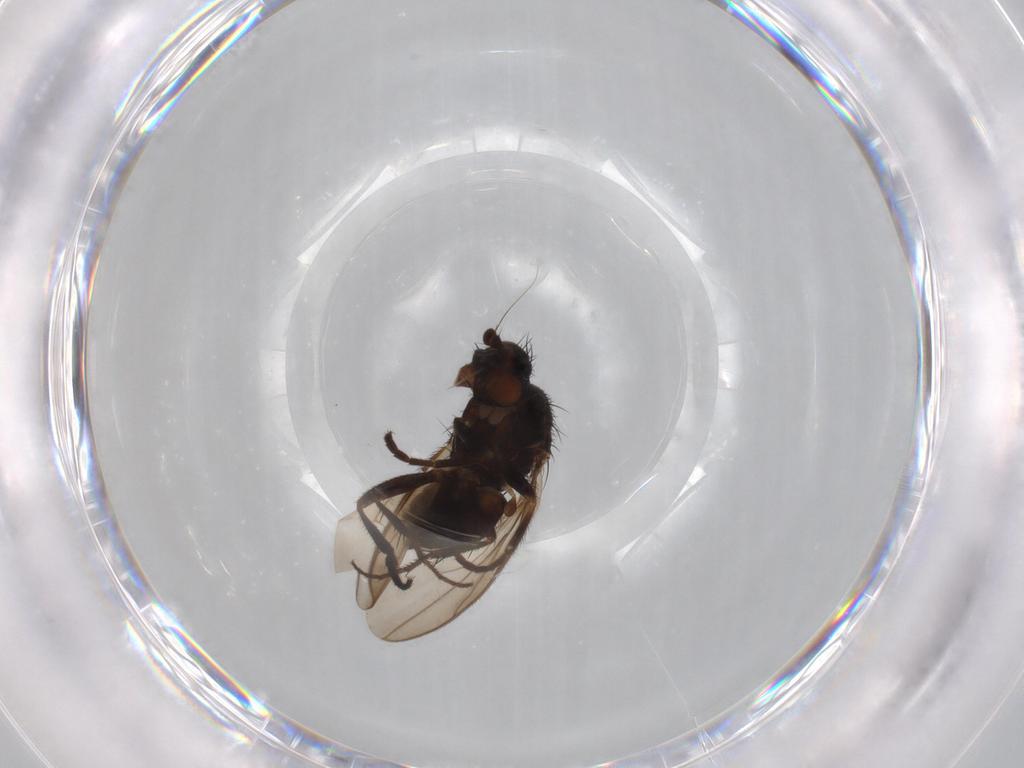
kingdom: Animalia
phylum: Arthropoda
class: Insecta
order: Diptera
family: Sphaeroceridae
